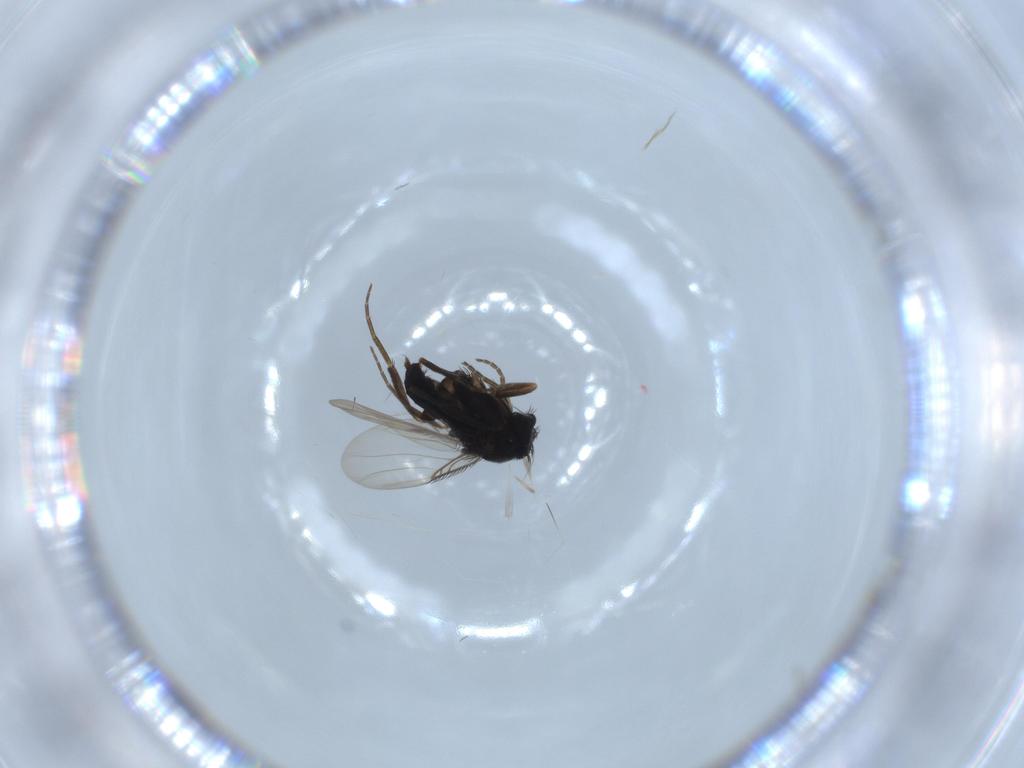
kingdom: Animalia
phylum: Arthropoda
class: Insecta
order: Diptera
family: Phoridae
